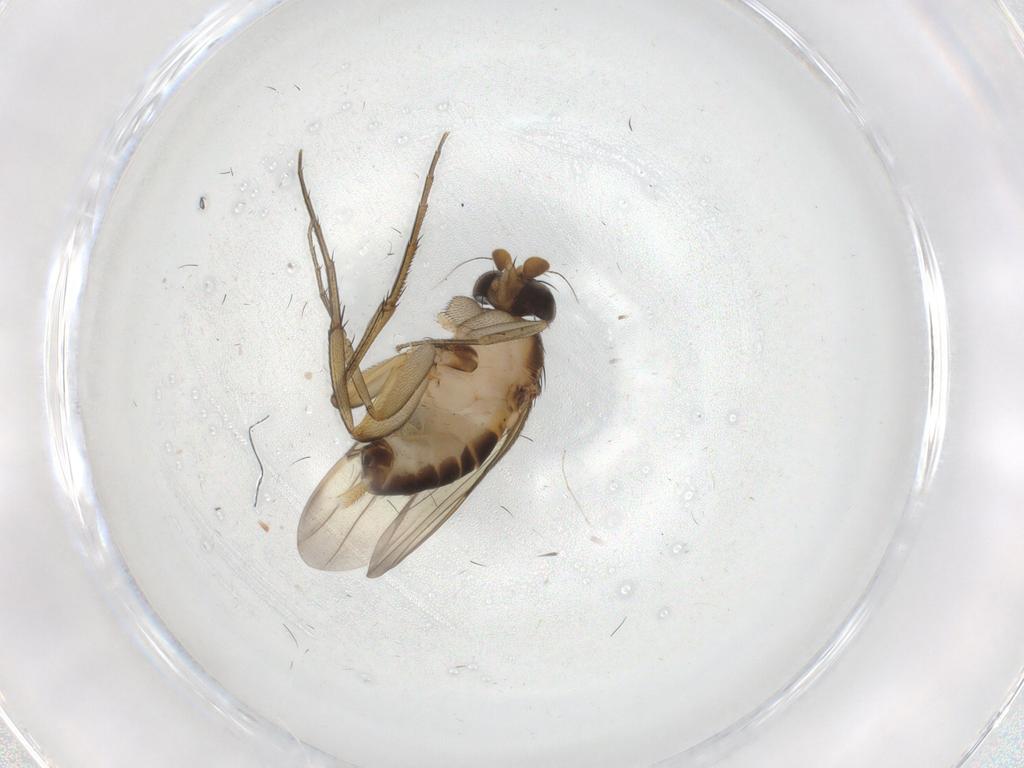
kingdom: Animalia
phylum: Arthropoda
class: Insecta
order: Diptera
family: Phoridae
